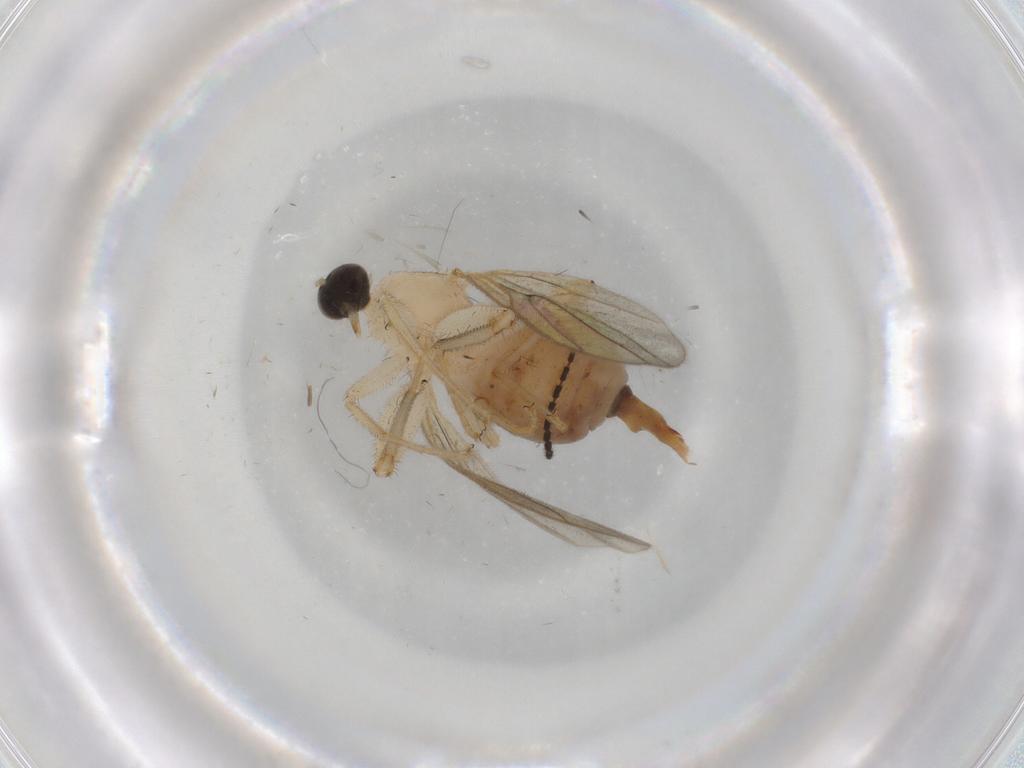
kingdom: Animalia
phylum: Arthropoda
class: Insecta
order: Diptera
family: Hybotidae
